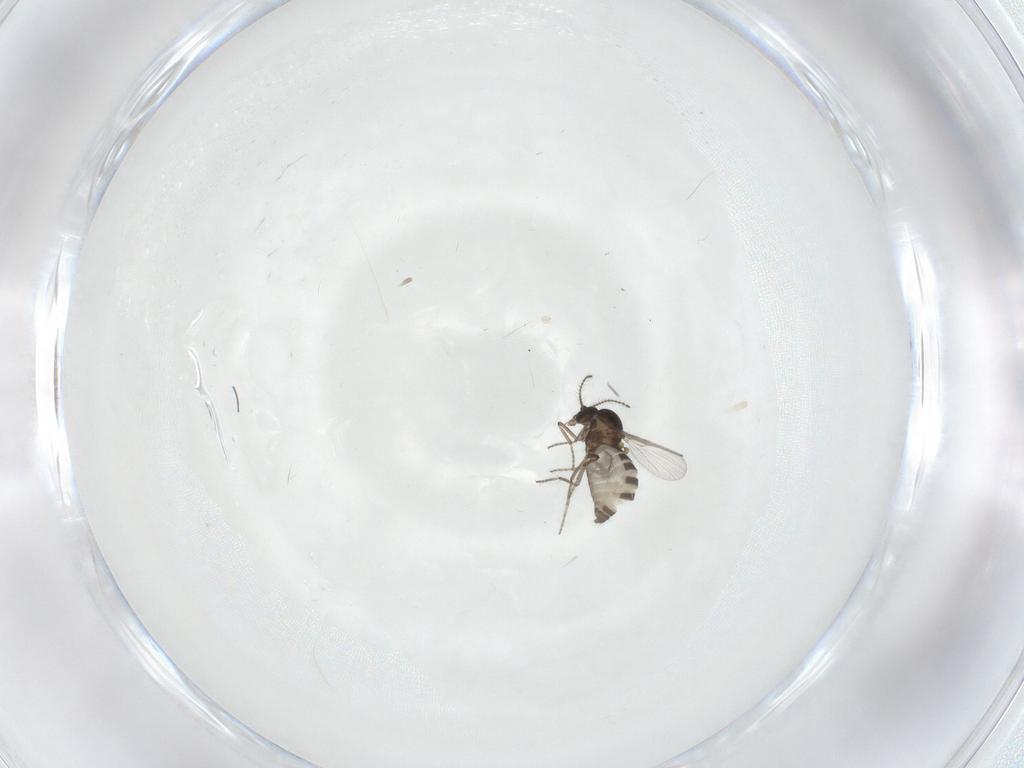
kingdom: Animalia
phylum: Arthropoda
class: Insecta
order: Diptera
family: Ceratopogonidae
